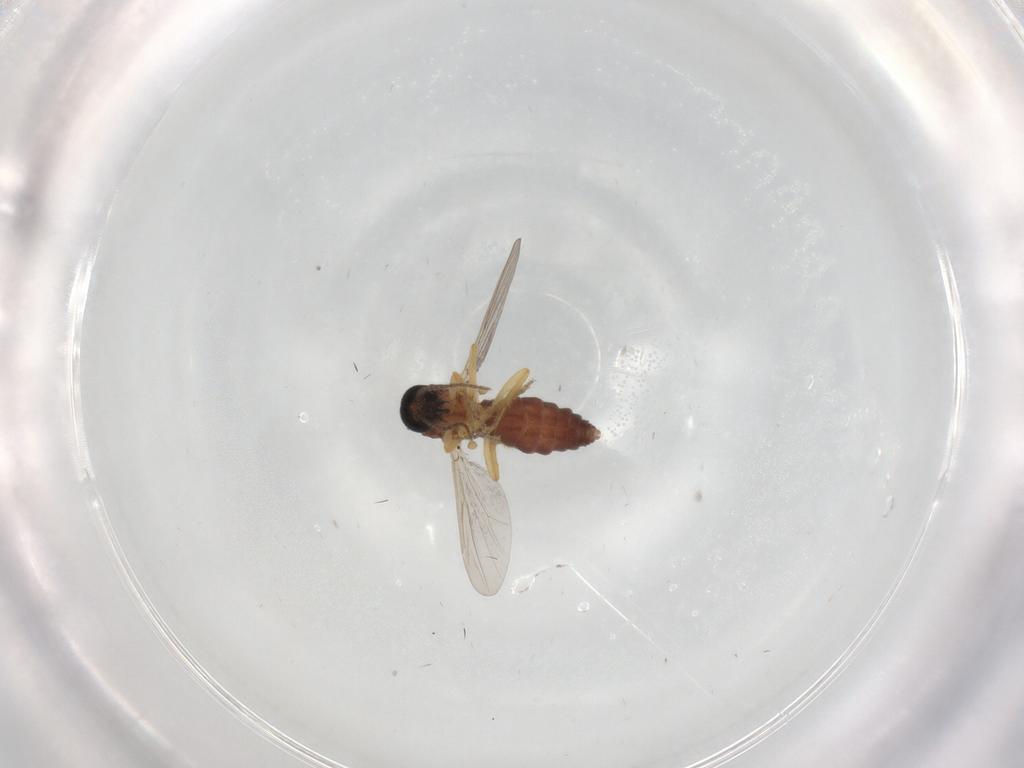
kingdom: Animalia
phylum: Arthropoda
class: Insecta
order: Diptera
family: Ceratopogonidae
